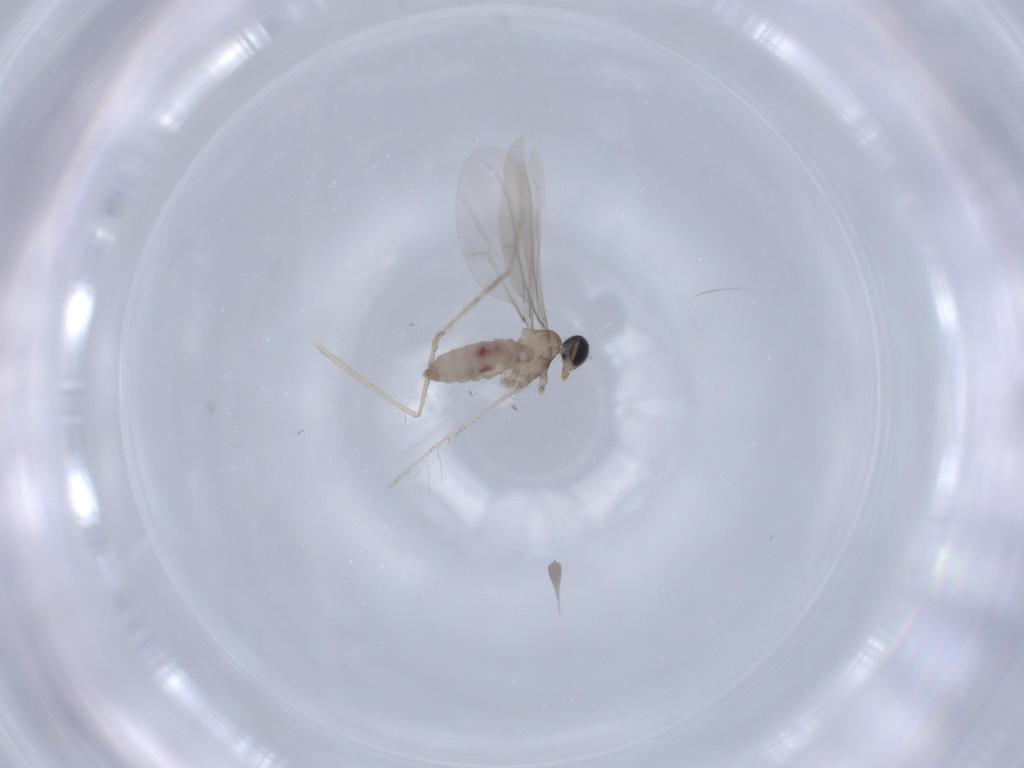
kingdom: Animalia
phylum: Arthropoda
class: Insecta
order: Diptera
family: Cecidomyiidae
